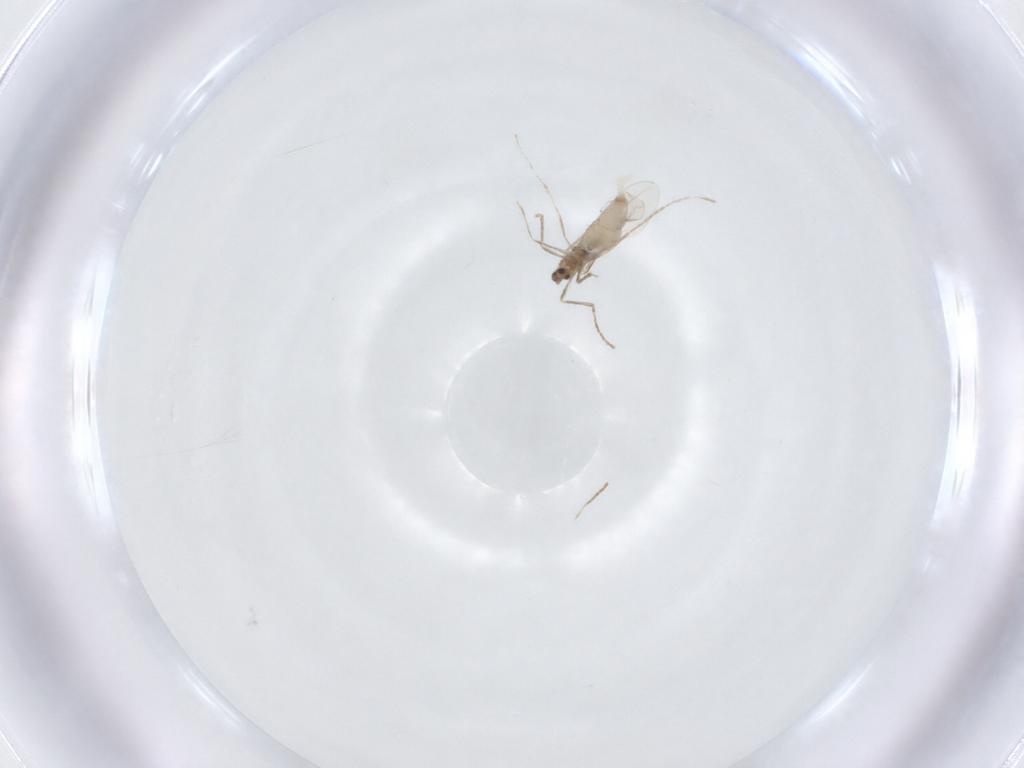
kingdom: Animalia
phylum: Arthropoda
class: Insecta
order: Diptera
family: Cecidomyiidae
